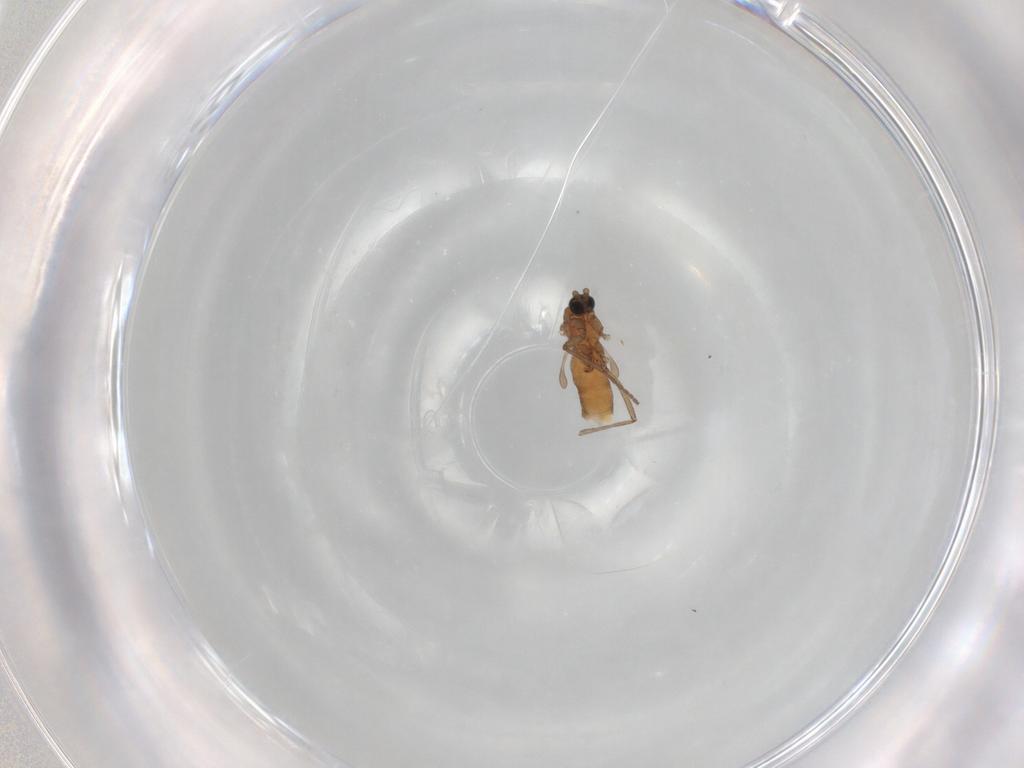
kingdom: Animalia
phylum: Arthropoda
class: Insecta
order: Diptera
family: Sciaridae
